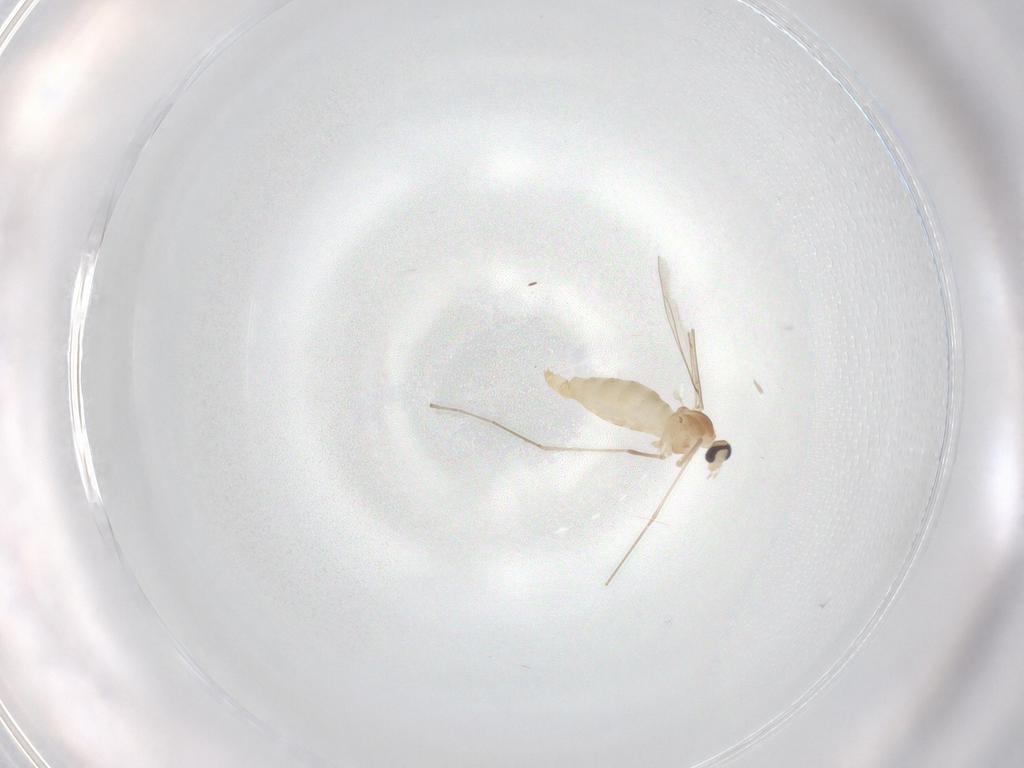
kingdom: Animalia
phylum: Arthropoda
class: Insecta
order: Diptera
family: Cecidomyiidae
